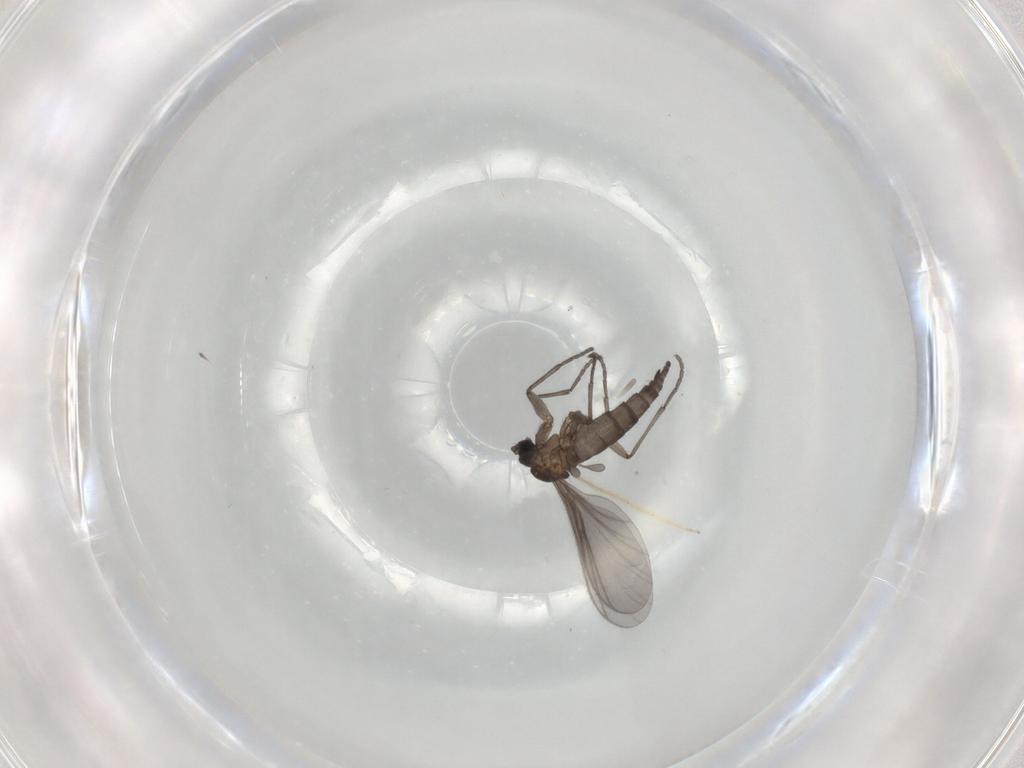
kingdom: Animalia
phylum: Arthropoda
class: Insecta
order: Diptera
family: Sciaridae
